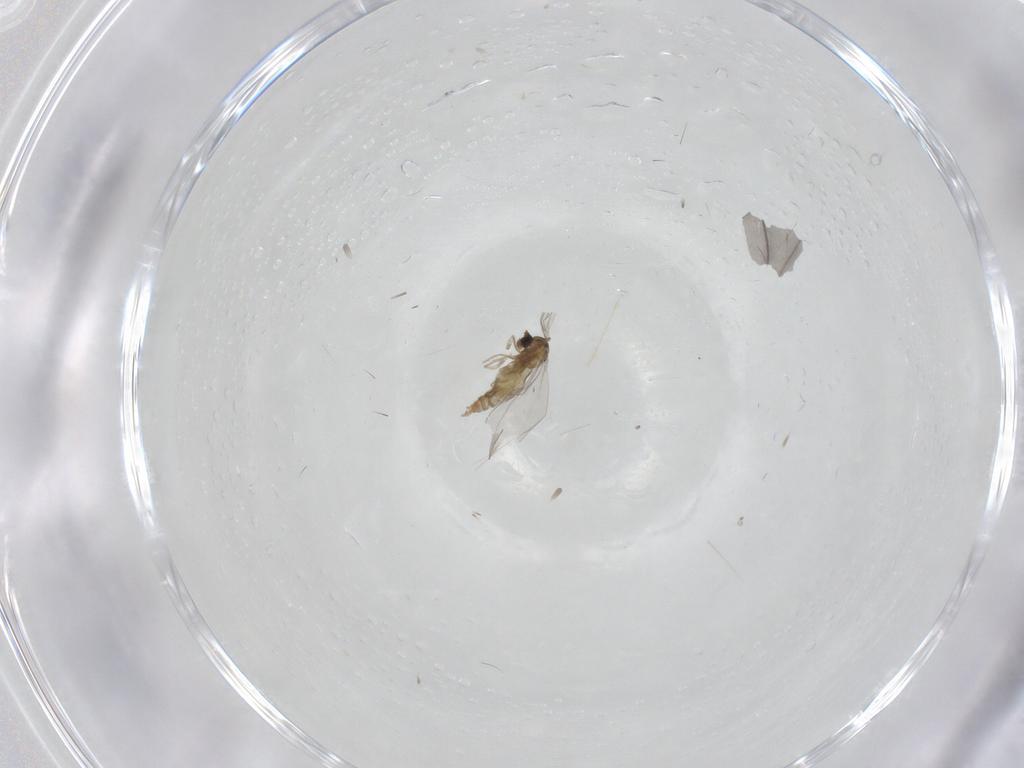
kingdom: Animalia
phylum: Arthropoda
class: Insecta
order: Diptera
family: Cecidomyiidae
